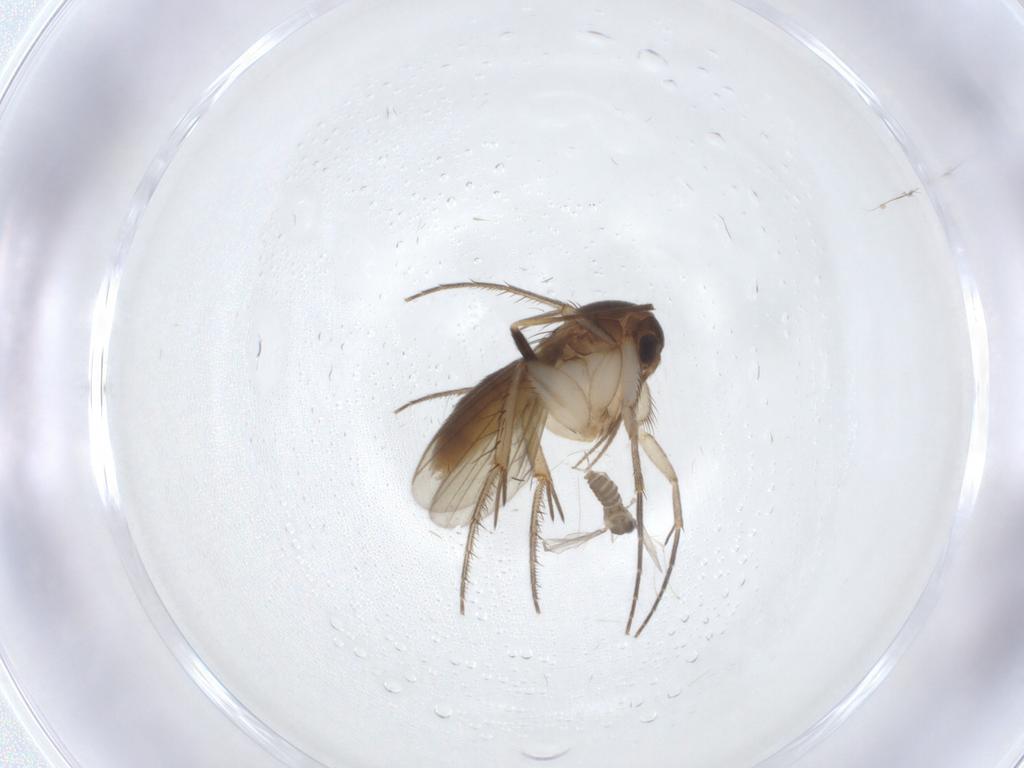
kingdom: Animalia
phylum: Arthropoda
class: Insecta
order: Diptera
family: Mycetophilidae
